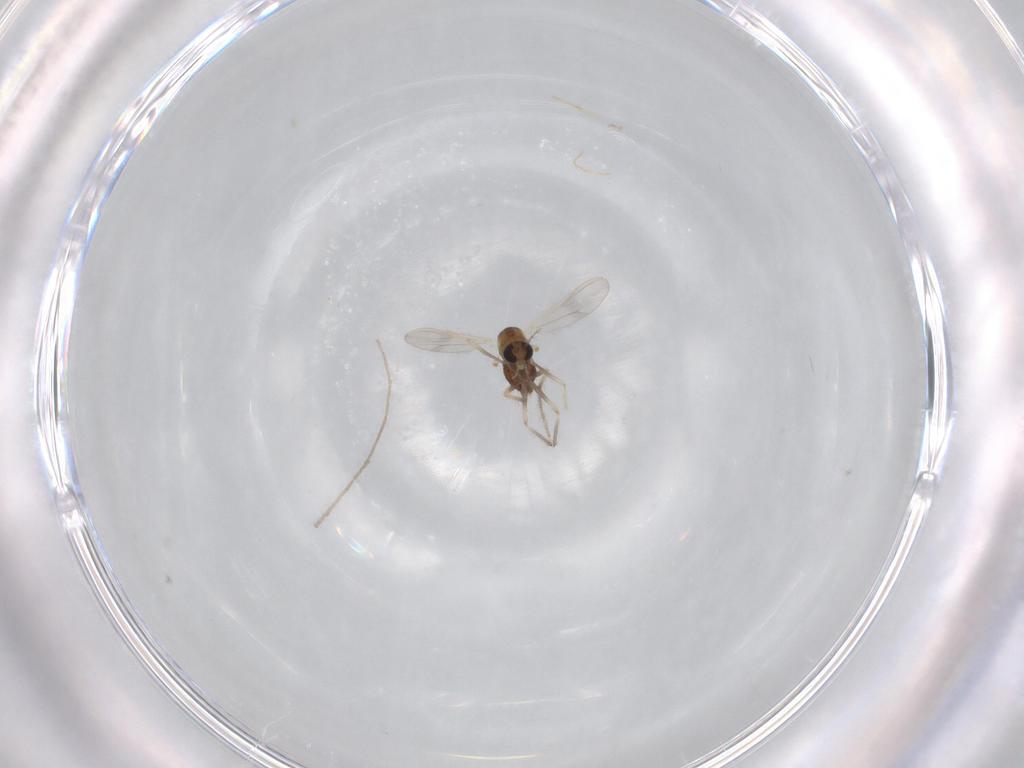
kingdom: Animalia
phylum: Arthropoda
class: Insecta
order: Diptera
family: Chironomidae
